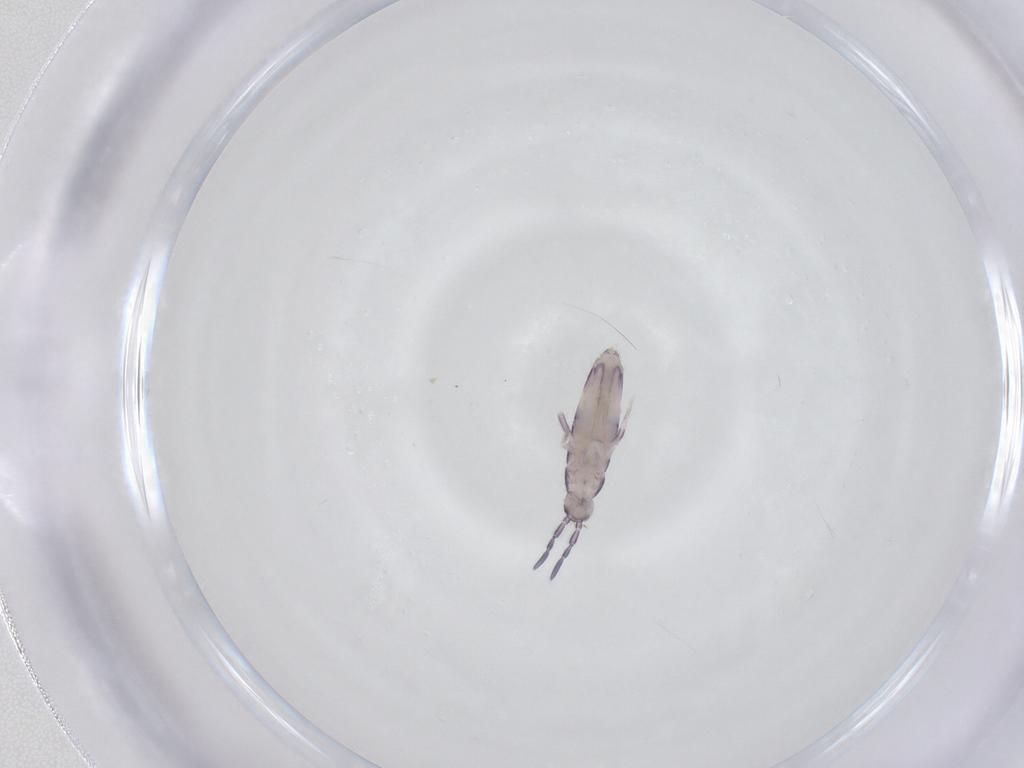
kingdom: Animalia
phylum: Arthropoda
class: Collembola
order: Entomobryomorpha
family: Entomobryidae
